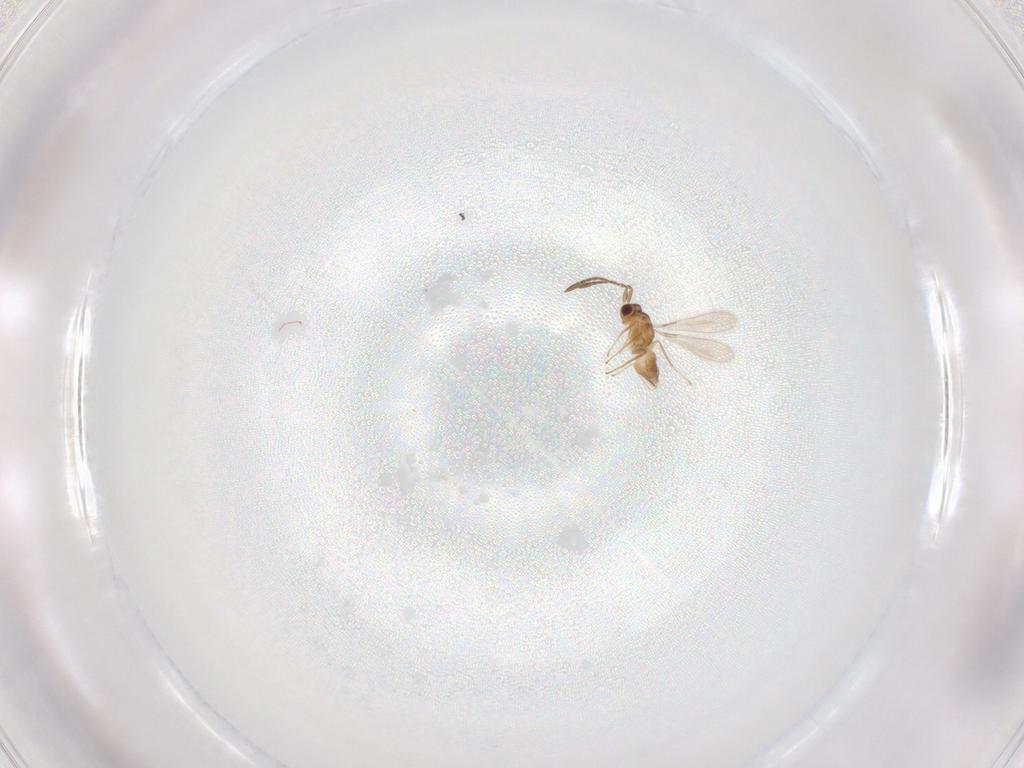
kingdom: Animalia
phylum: Arthropoda
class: Insecta
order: Hymenoptera
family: Mymaridae
